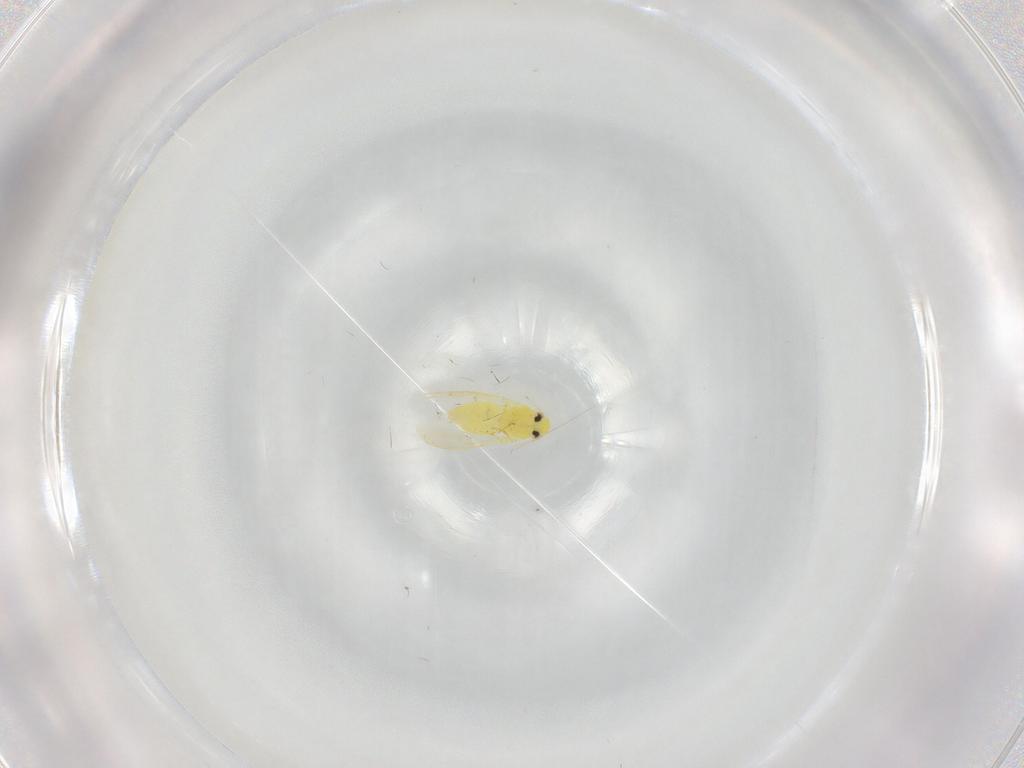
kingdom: Animalia
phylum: Arthropoda
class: Insecta
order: Hemiptera
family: Aleyrodidae
